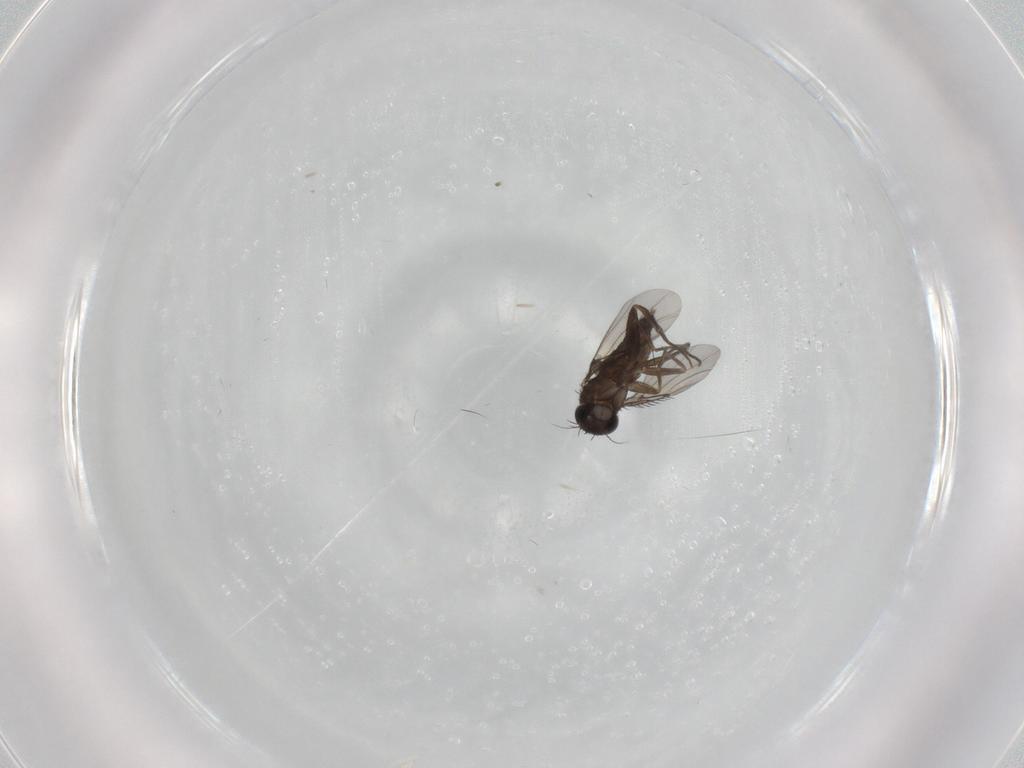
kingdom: Animalia
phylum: Arthropoda
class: Insecta
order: Diptera
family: Phoridae
